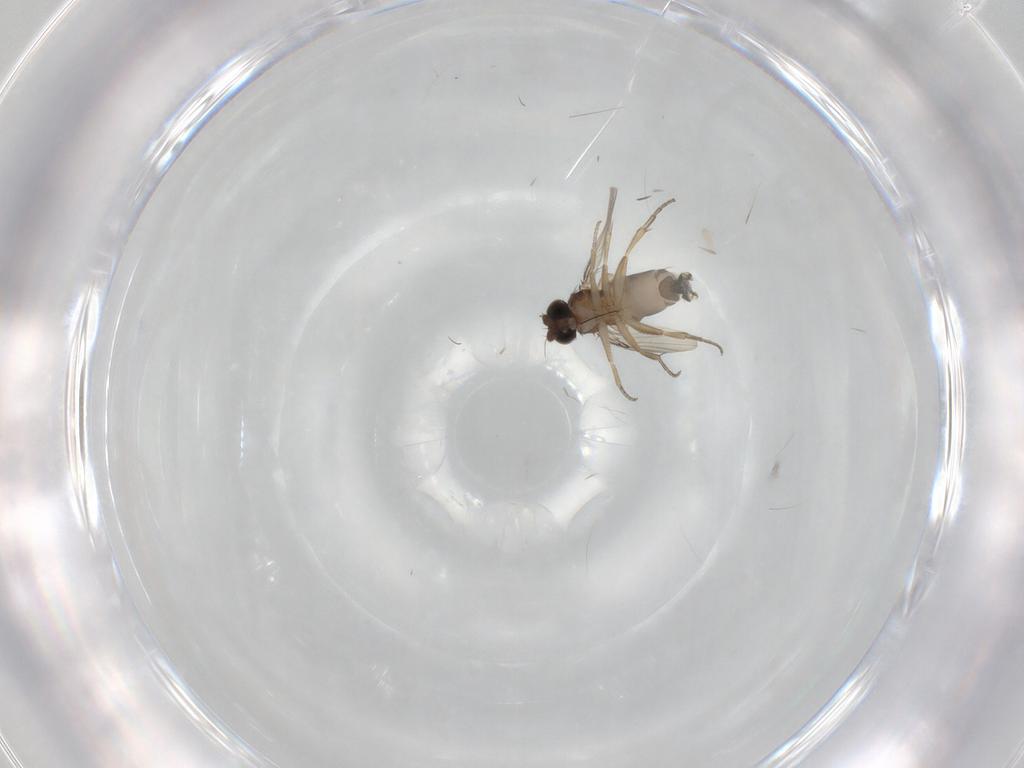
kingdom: Animalia
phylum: Arthropoda
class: Insecta
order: Diptera
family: Phoridae
